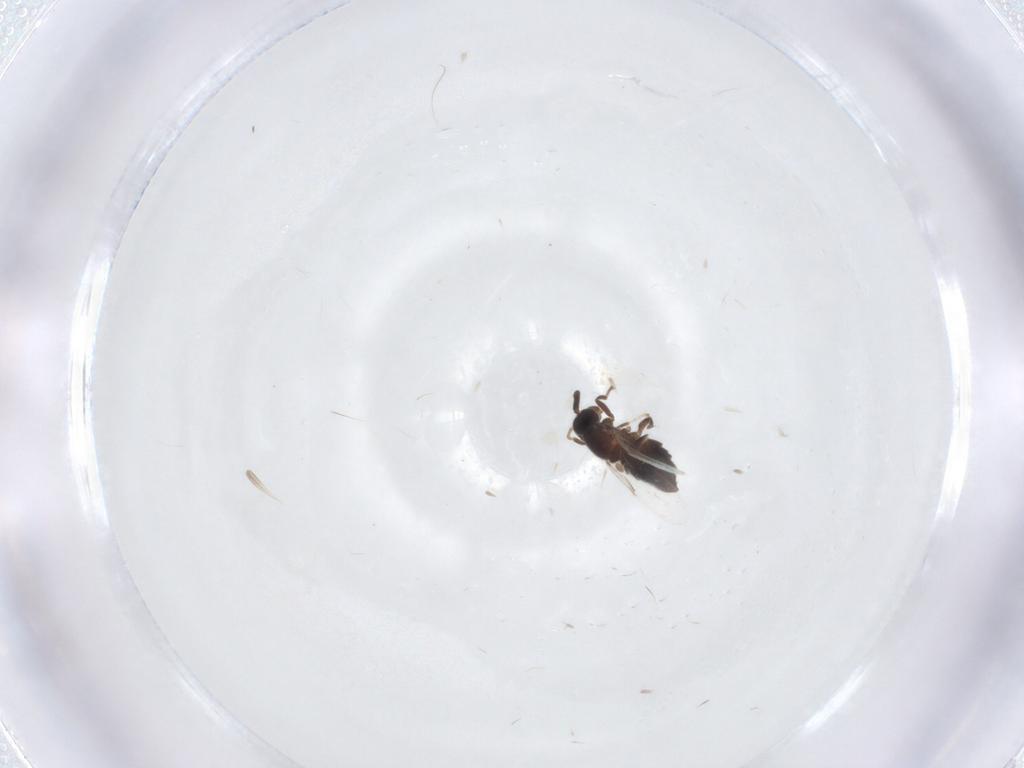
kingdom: Animalia
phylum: Arthropoda
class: Insecta
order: Diptera
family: Scatopsidae
